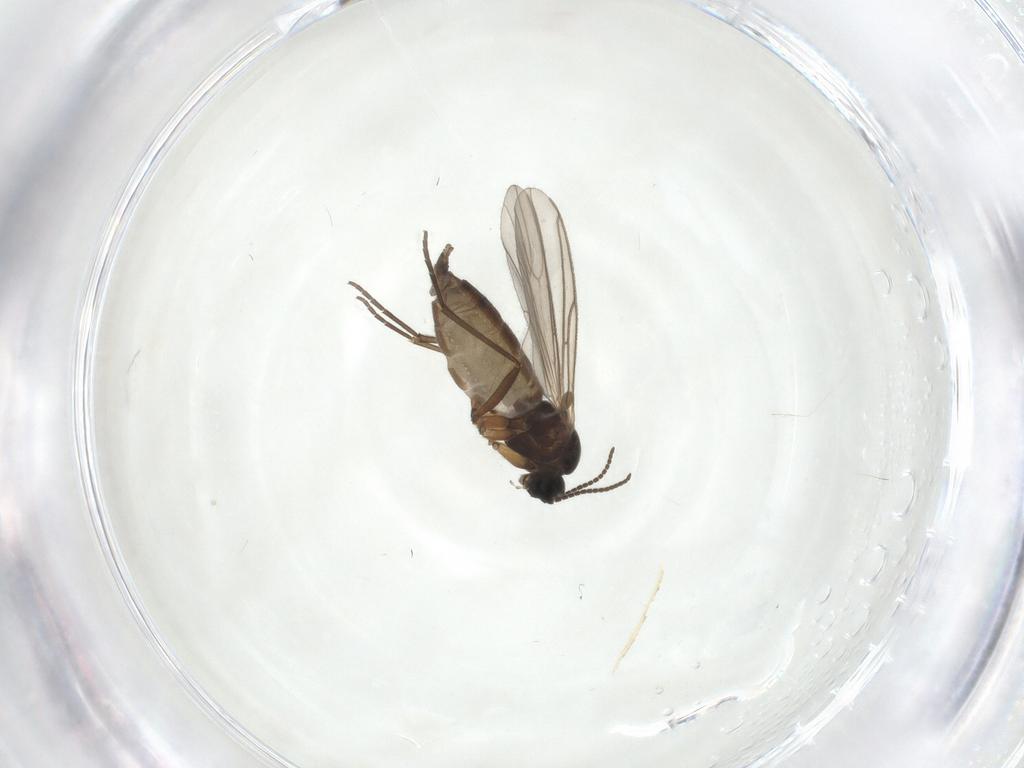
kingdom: Animalia
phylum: Arthropoda
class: Insecta
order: Diptera
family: Sciaridae
